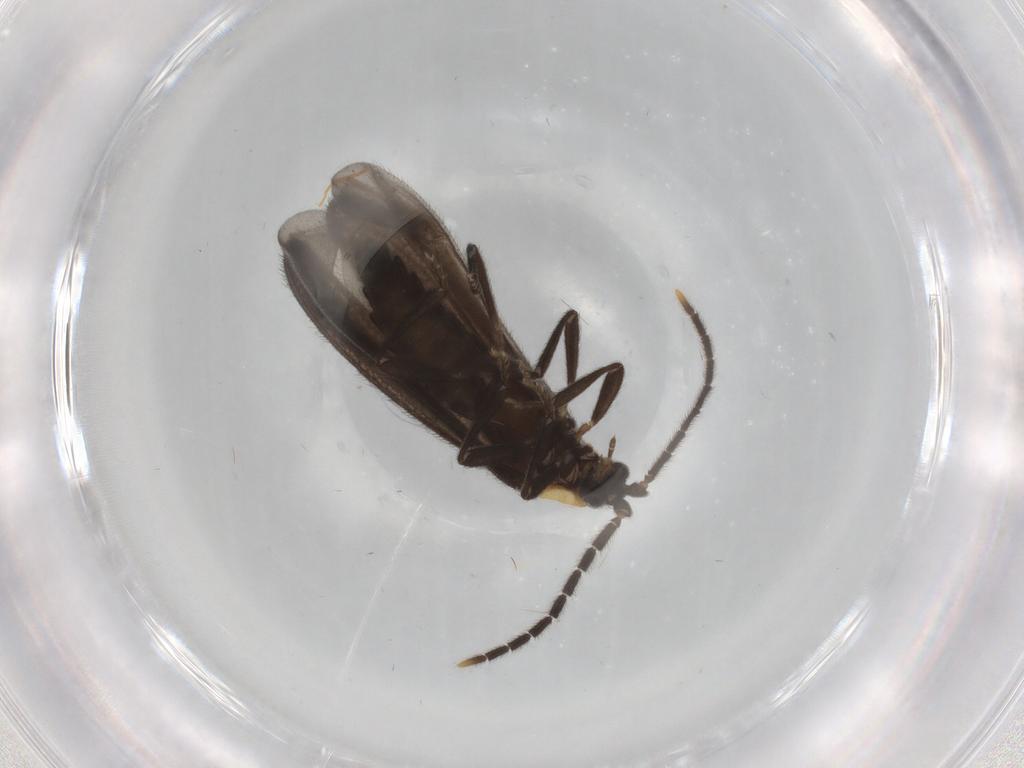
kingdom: Animalia
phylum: Arthropoda
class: Insecta
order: Coleoptera
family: Lycidae
